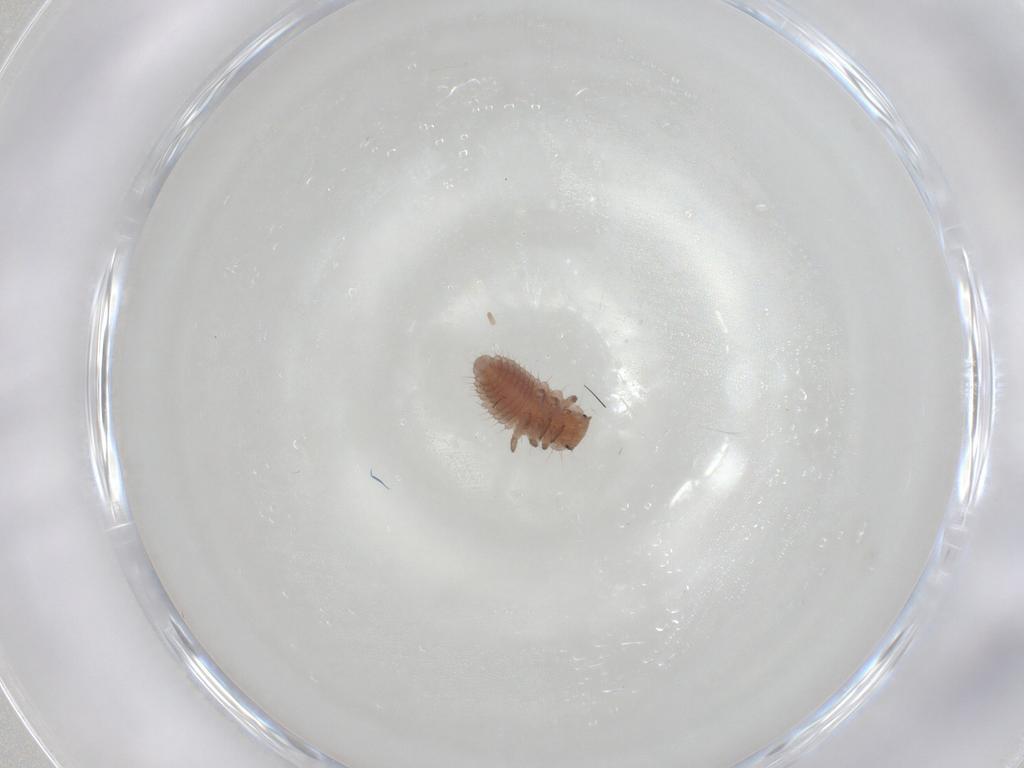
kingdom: Animalia
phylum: Arthropoda
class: Insecta
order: Coleoptera
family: Coccinellidae
